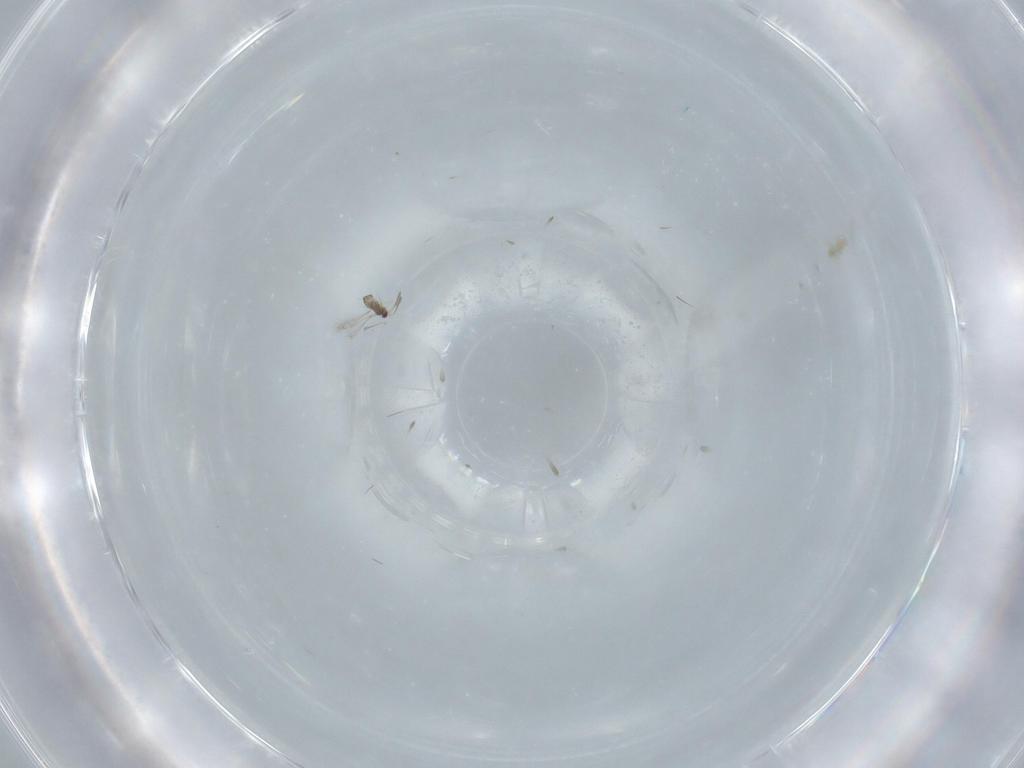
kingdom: Animalia
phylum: Arthropoda
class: Insecta
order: Hymenoptera
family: Mymaridae
